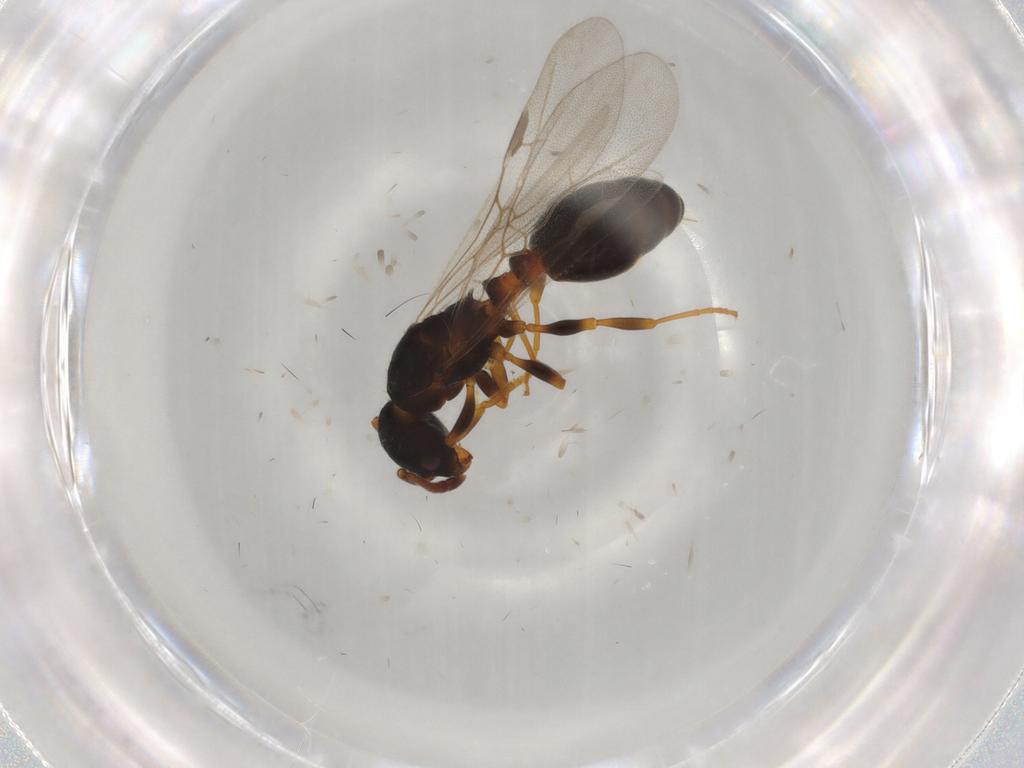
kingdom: Animalia
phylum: Arthropoda
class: Insecta
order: Hymenoptera
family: Formicidae
